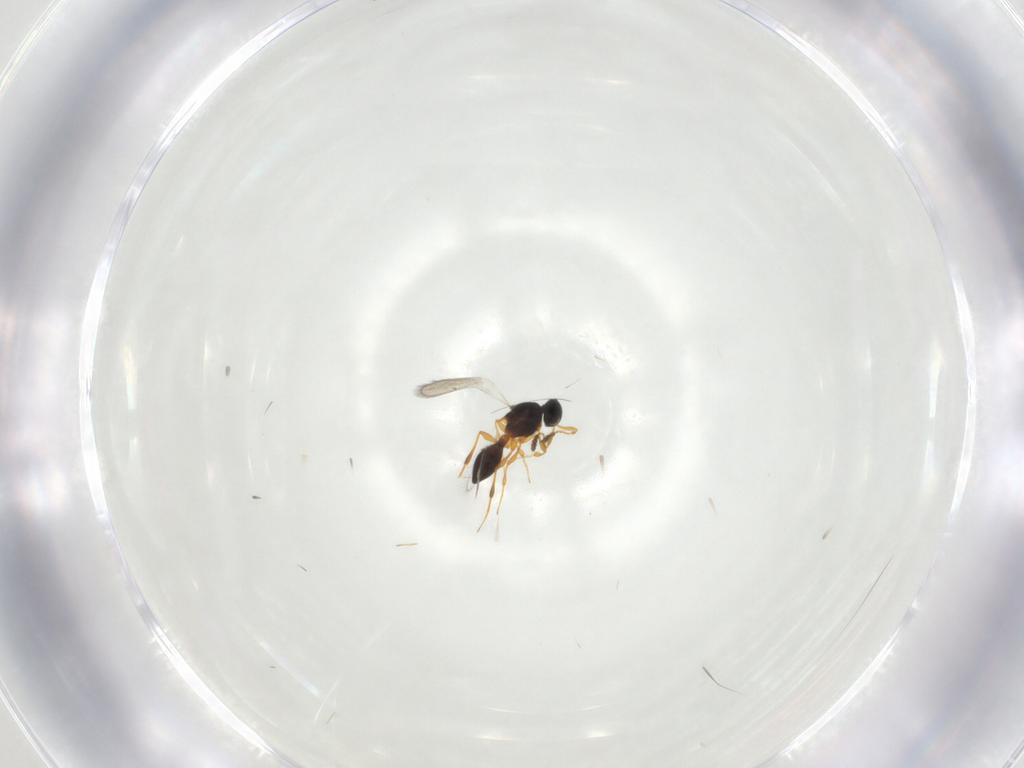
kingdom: Animalia
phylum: Arthropoda
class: Insecta
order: Hymenoptera
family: Platygastridae
